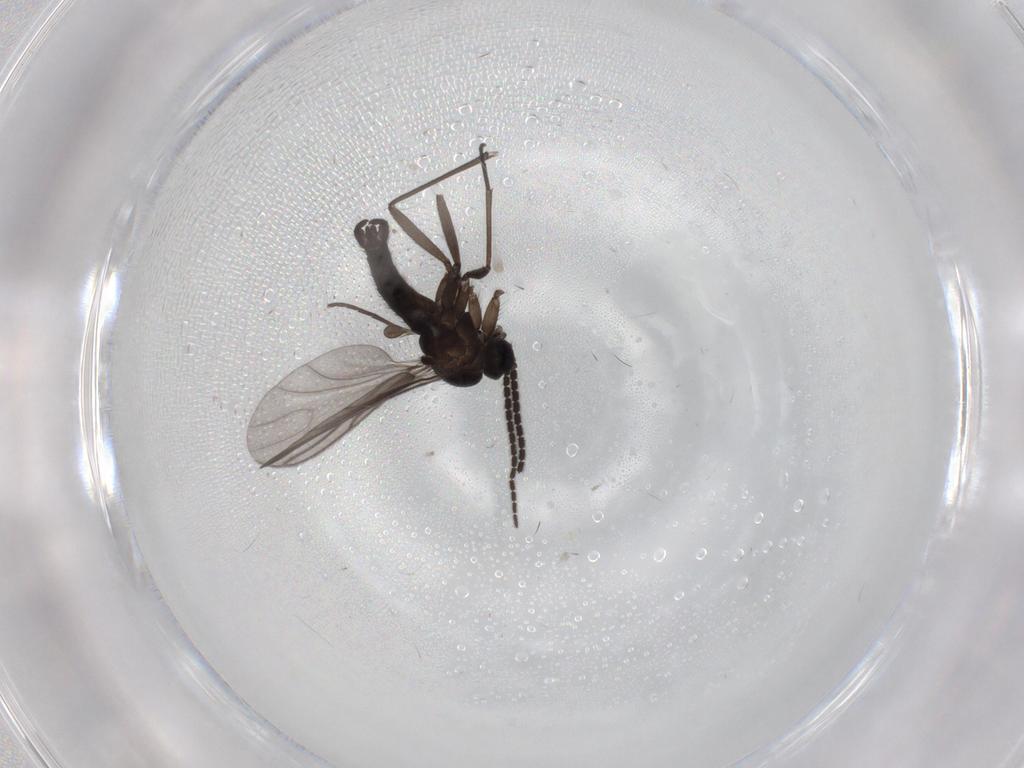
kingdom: Animalia
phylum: Arthropoda
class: Insecta
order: Diptera
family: Sciaridae
